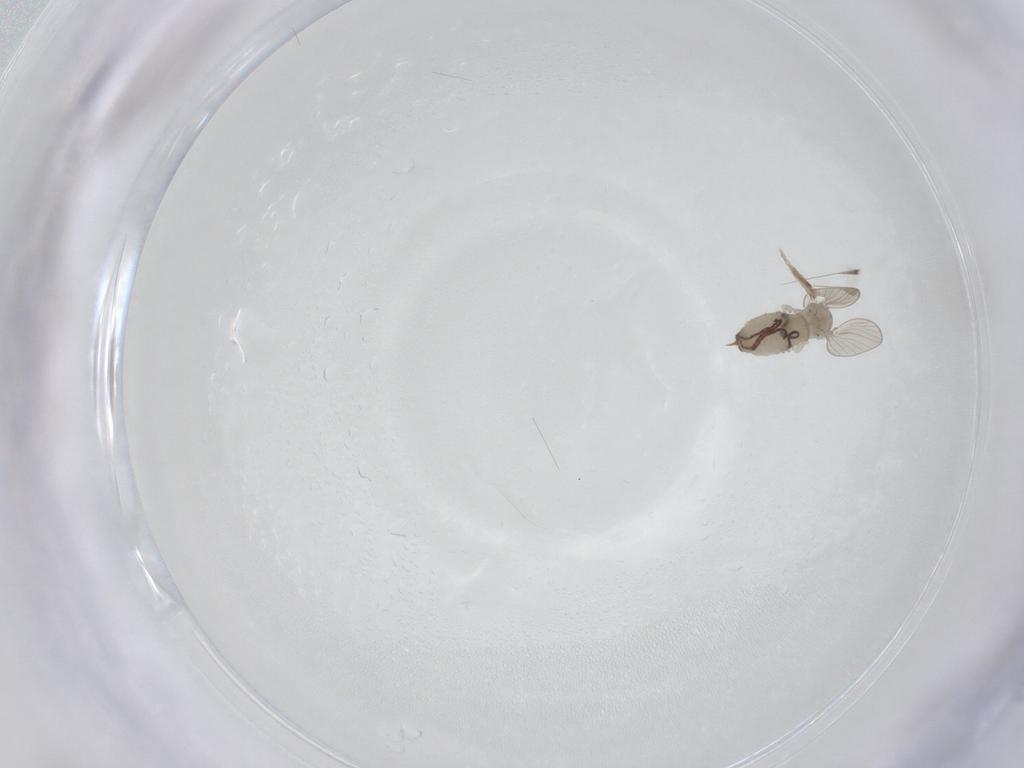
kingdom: Animalia
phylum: Arthropoda
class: Insecta
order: Diptera
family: Psychodidae
